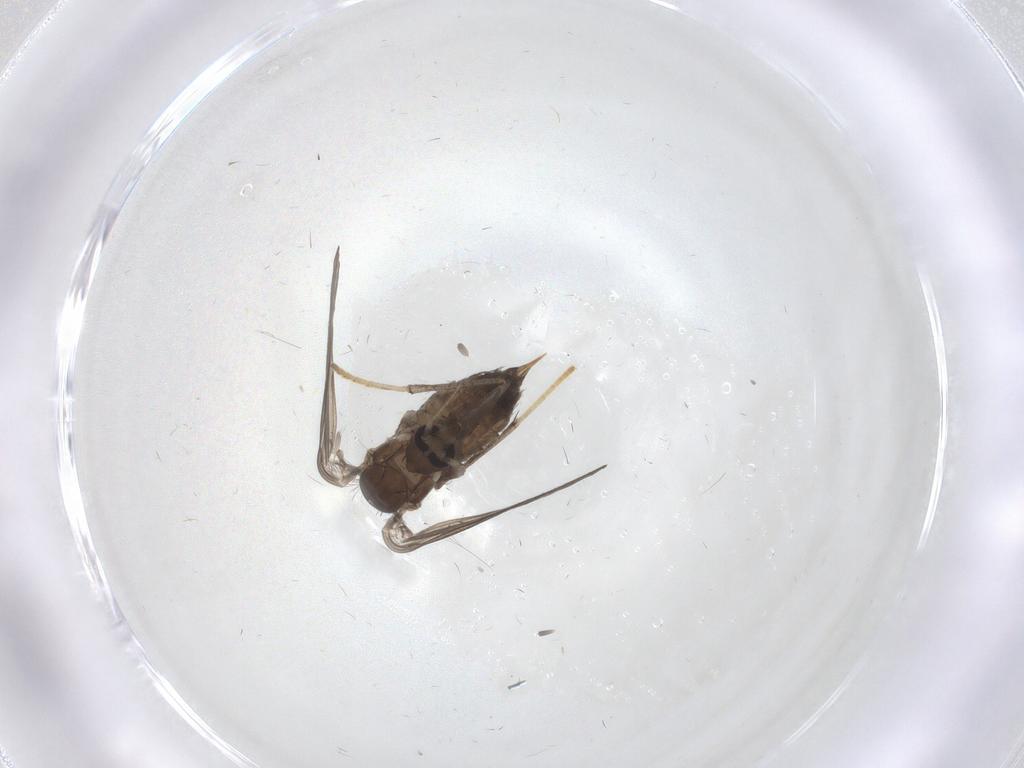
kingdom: Animalia
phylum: Arthropoda
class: Insecta
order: Diptera
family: Psychodidae
